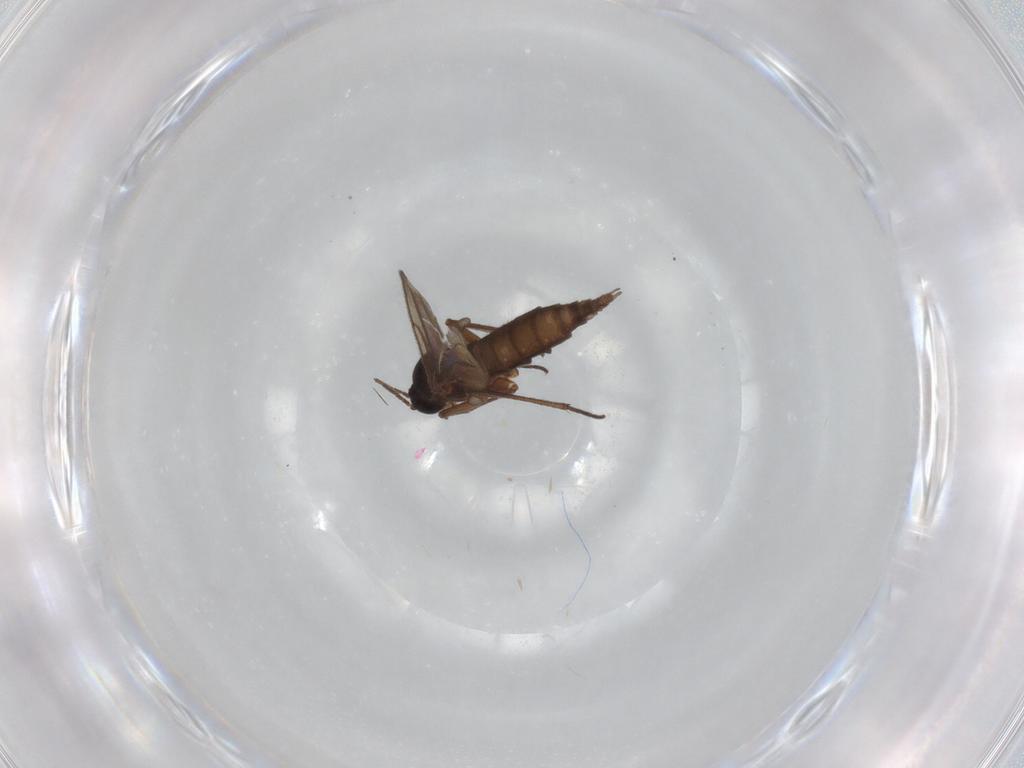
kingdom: Animalia
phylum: Arthropoda
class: Insecta
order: Diptera
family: Sciaridae
